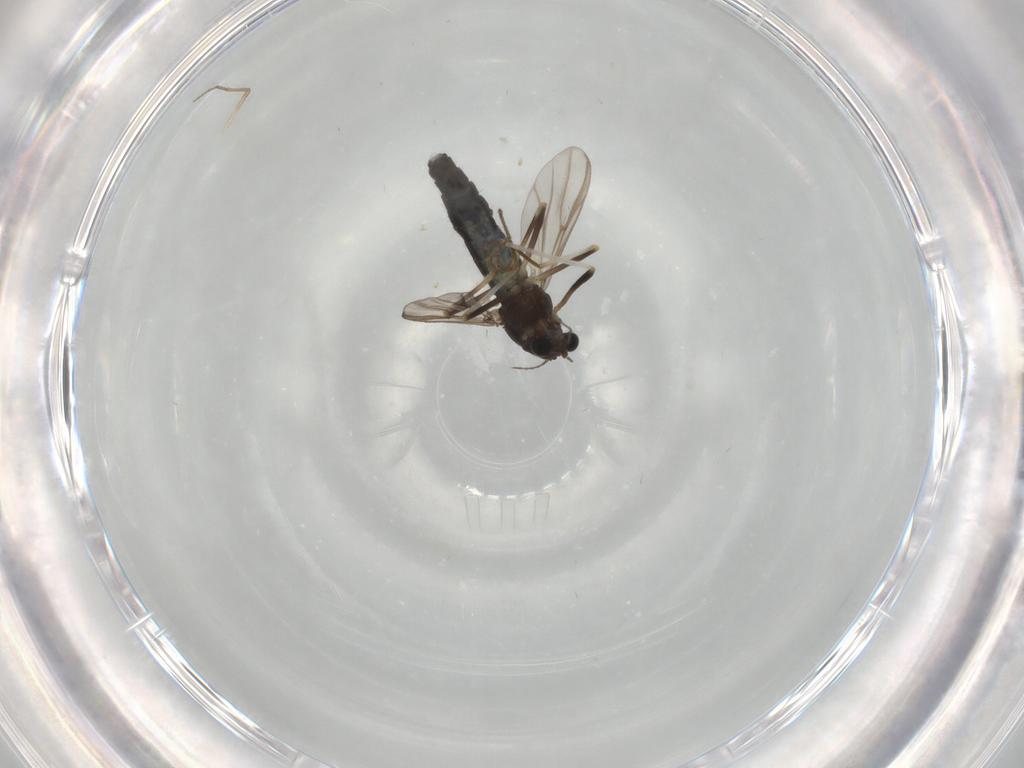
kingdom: Animalia
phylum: Arthropoda
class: Insecta
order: Diptera
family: Chironomidae
